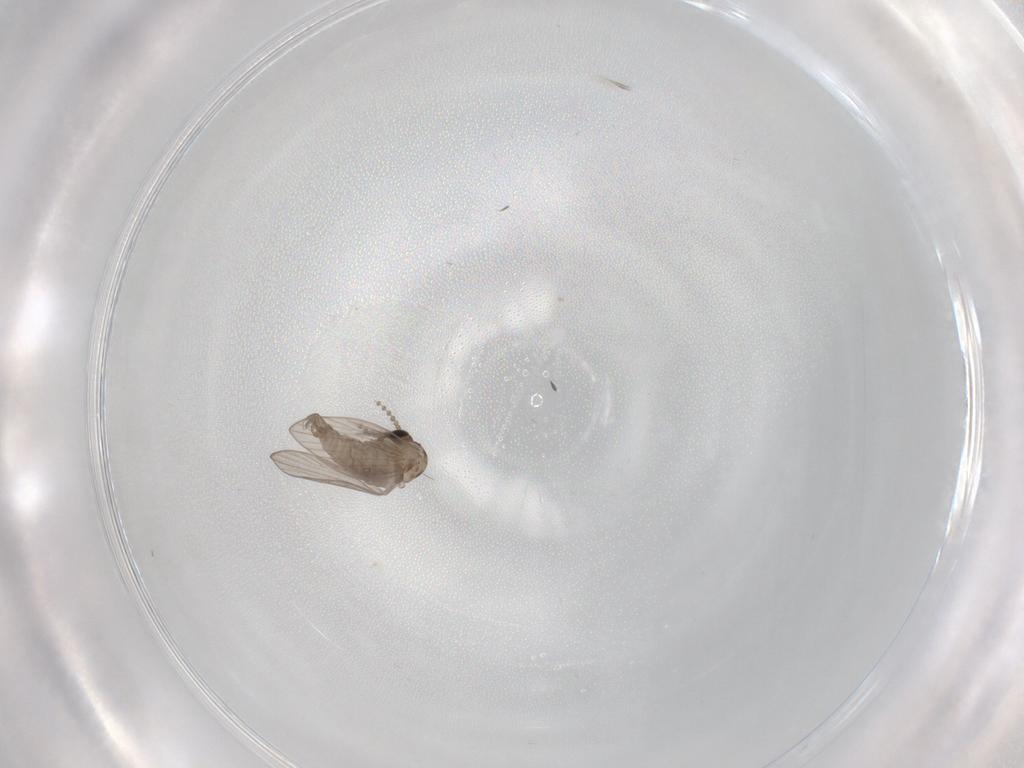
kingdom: Animalia
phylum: Arthropoda
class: Insecta
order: Diptera
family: Psychodidae
